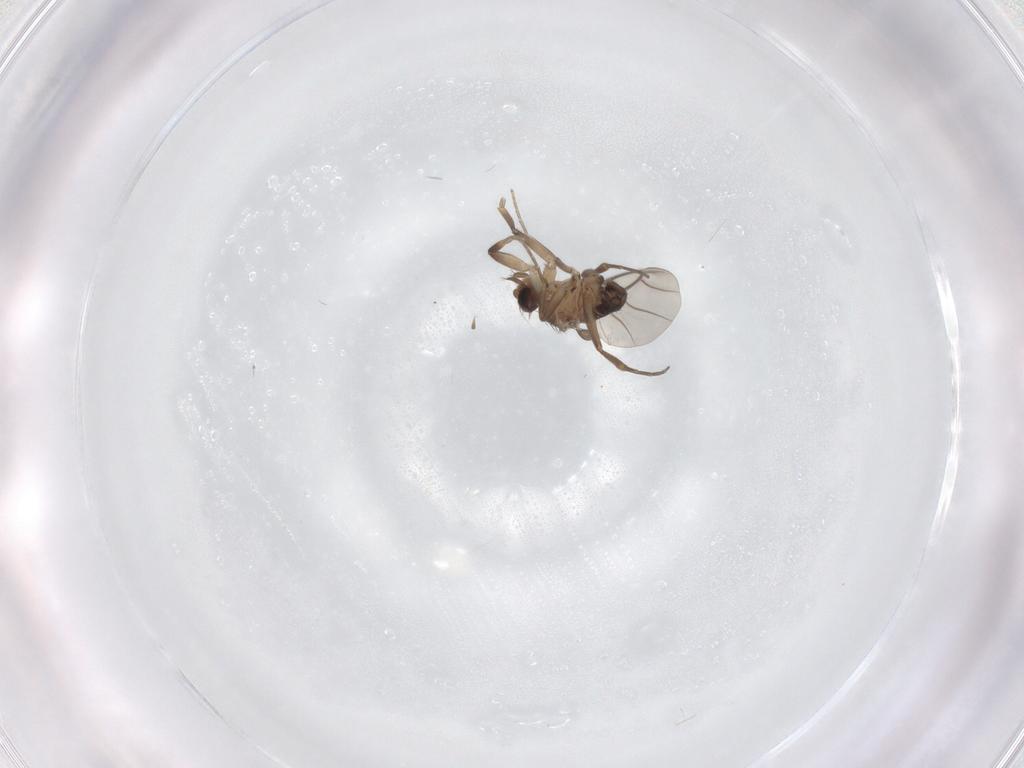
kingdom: Animalia
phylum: Arthropoda
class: Insecta
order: Diptera
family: Phoridae
